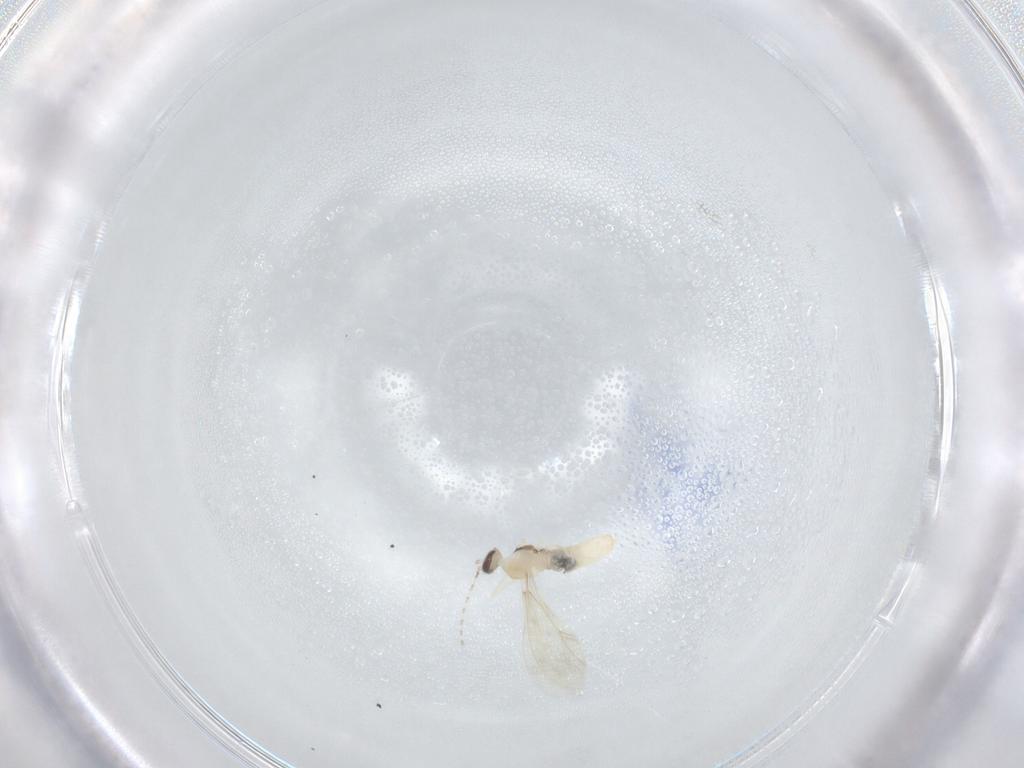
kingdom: Animalia
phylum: Arthropoda
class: Insecta
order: Diptera
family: Cecidomyiidae
